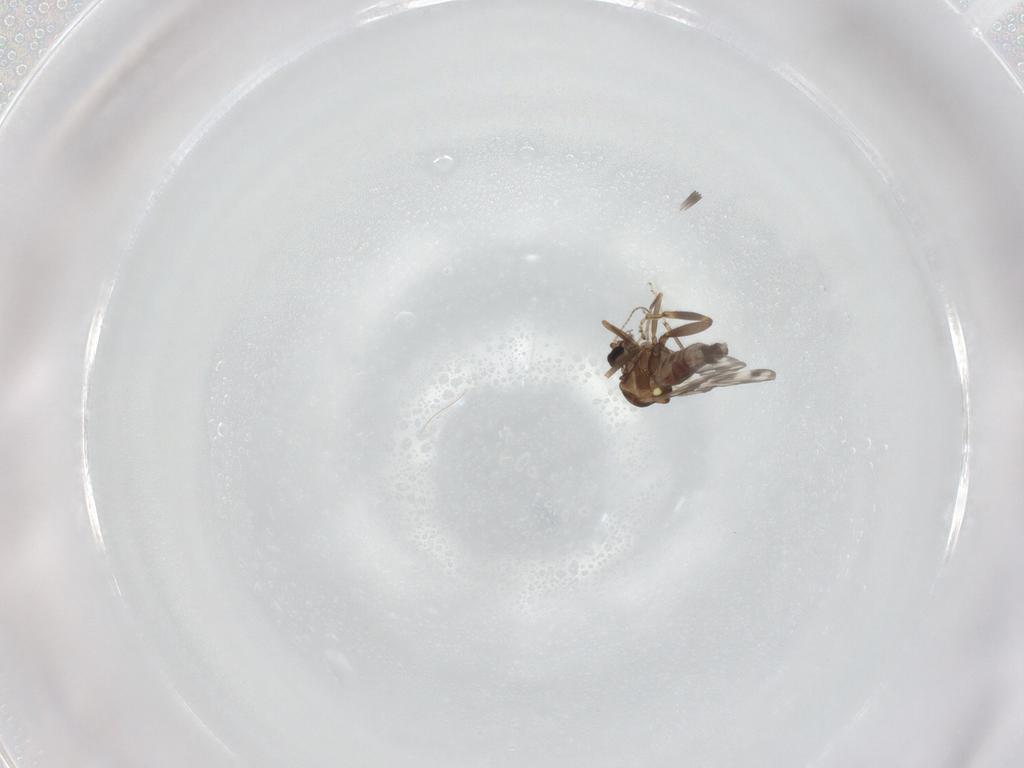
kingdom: Animalia
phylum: Arthropoda
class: Insecta
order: Diptera
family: Ceratopogonidae
